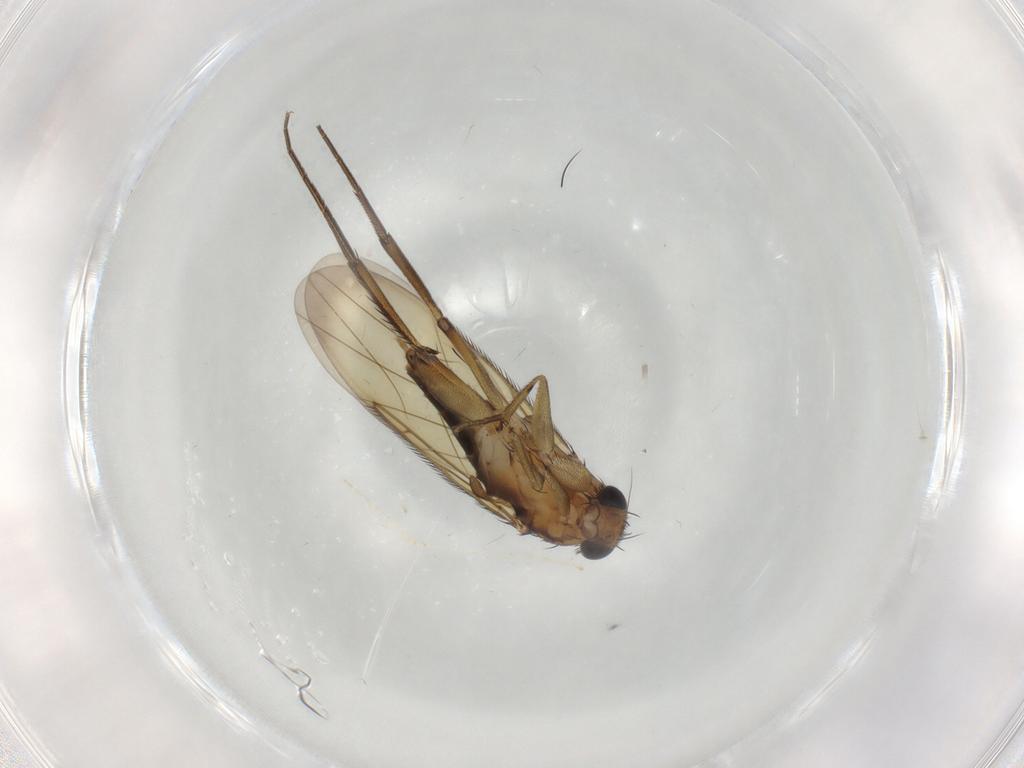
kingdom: Animalia
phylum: Arthropoda
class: Insecta
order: Diptera
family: Phoridae
